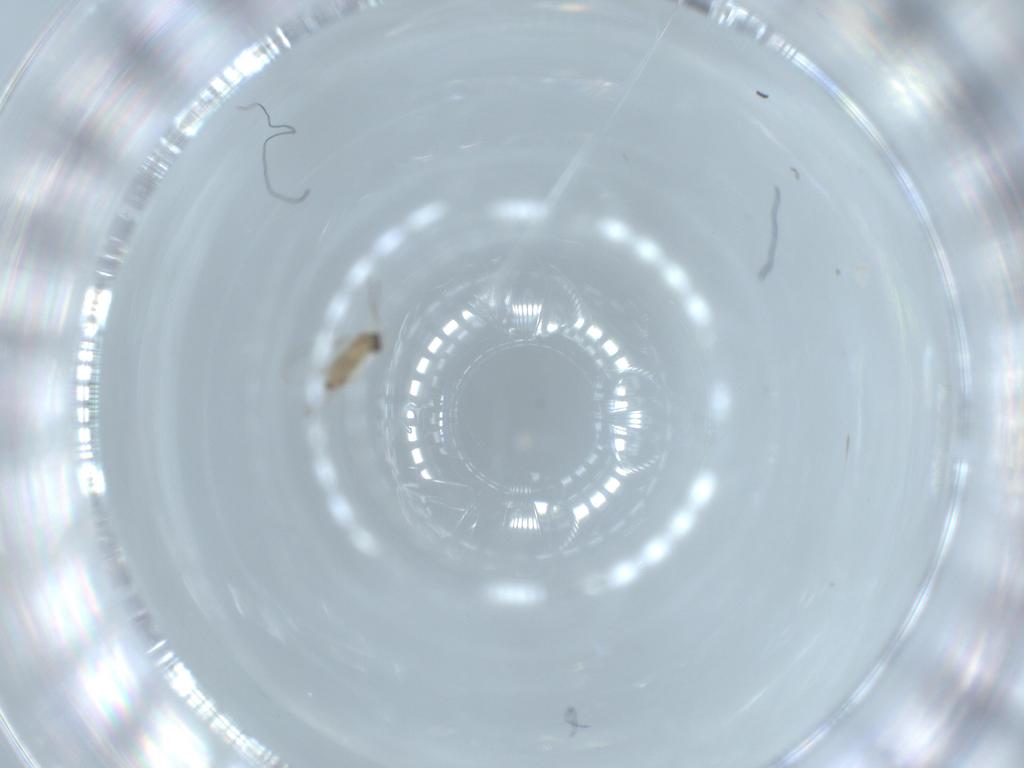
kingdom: Animalia
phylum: Arthropoda
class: Insecta
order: Diptera
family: Cecidomyiidae
